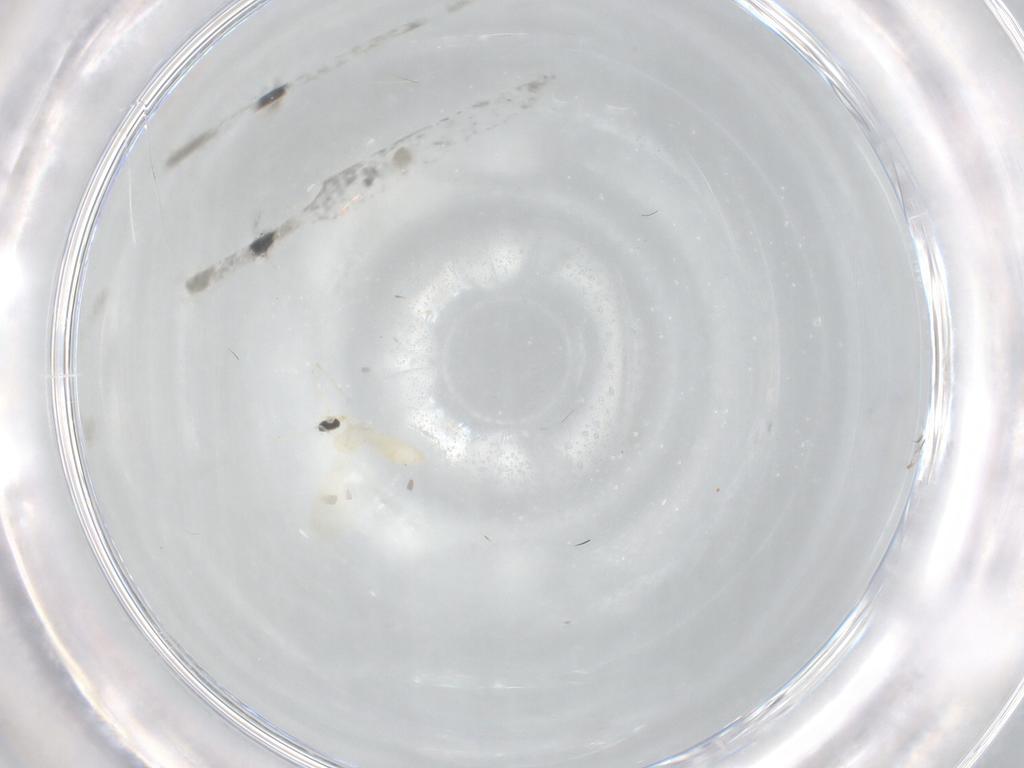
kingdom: Animalia
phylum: Arthropoda
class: Insecta
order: Diptera
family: Cecidomyiidae
